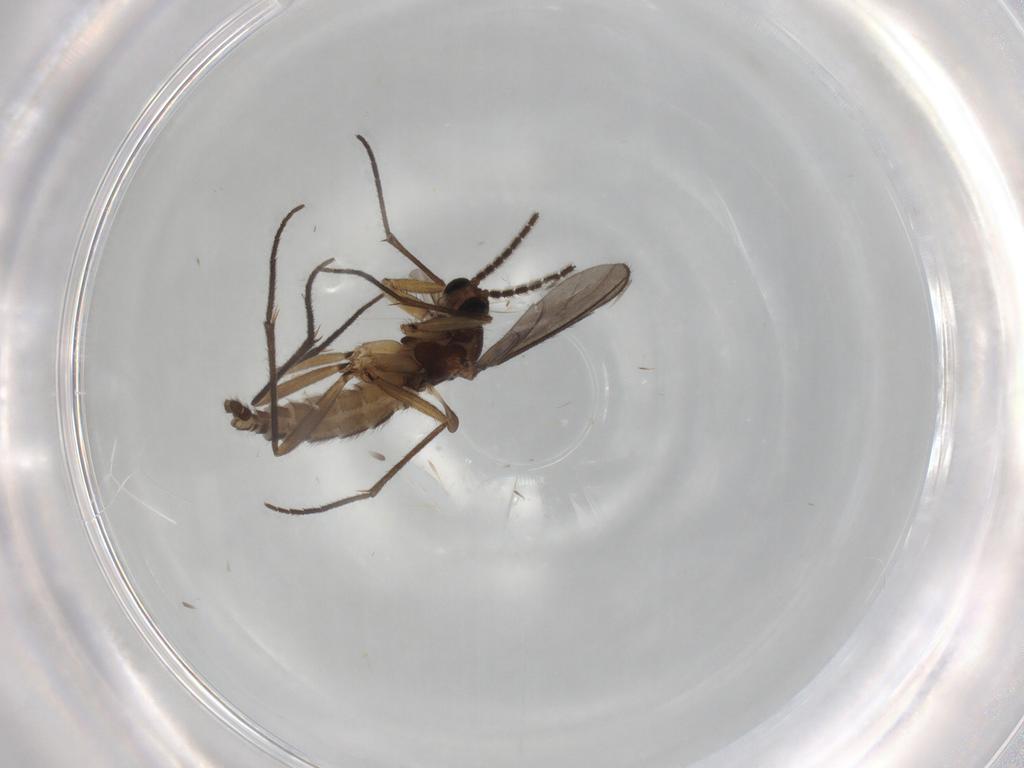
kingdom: Animalia
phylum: Arthropoda
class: Insecta
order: Diptera
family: Sciaridae
